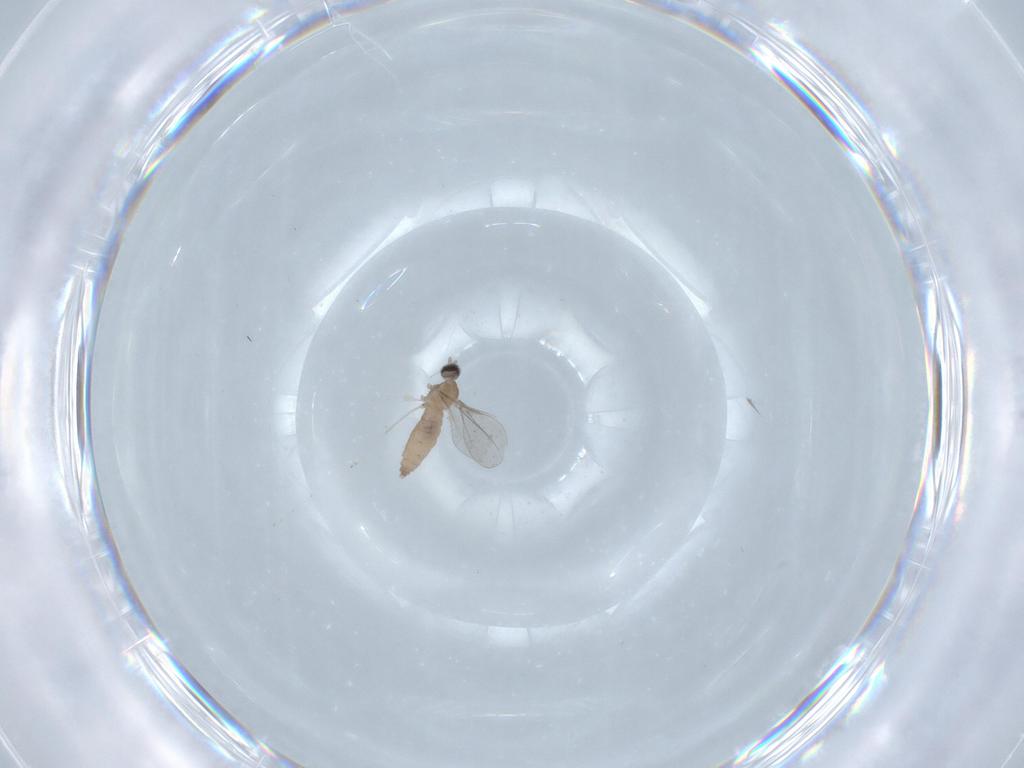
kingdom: Animalia
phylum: Arthropoda
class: Insecta
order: Diptera
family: Cecidomyiidae
